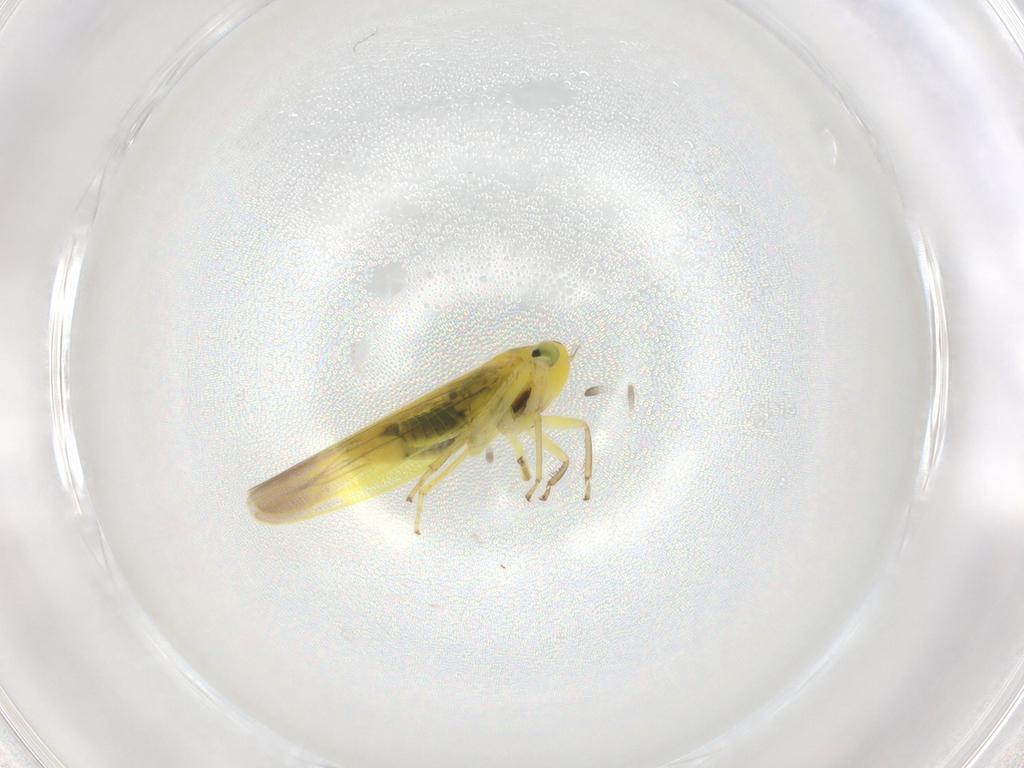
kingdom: Animalia
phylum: Arthropoda
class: Insecta
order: Hemiptera
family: Cicadellidae
